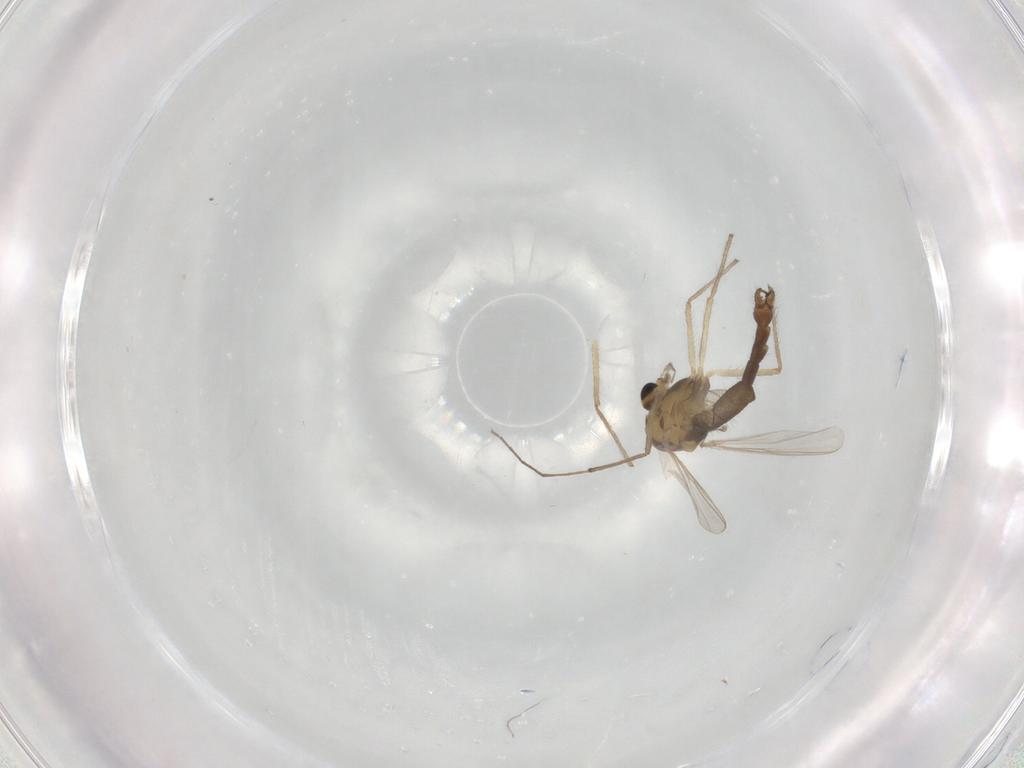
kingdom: Animalia
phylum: Arthropoda
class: Insecta
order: Diptera
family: Chironomidae
